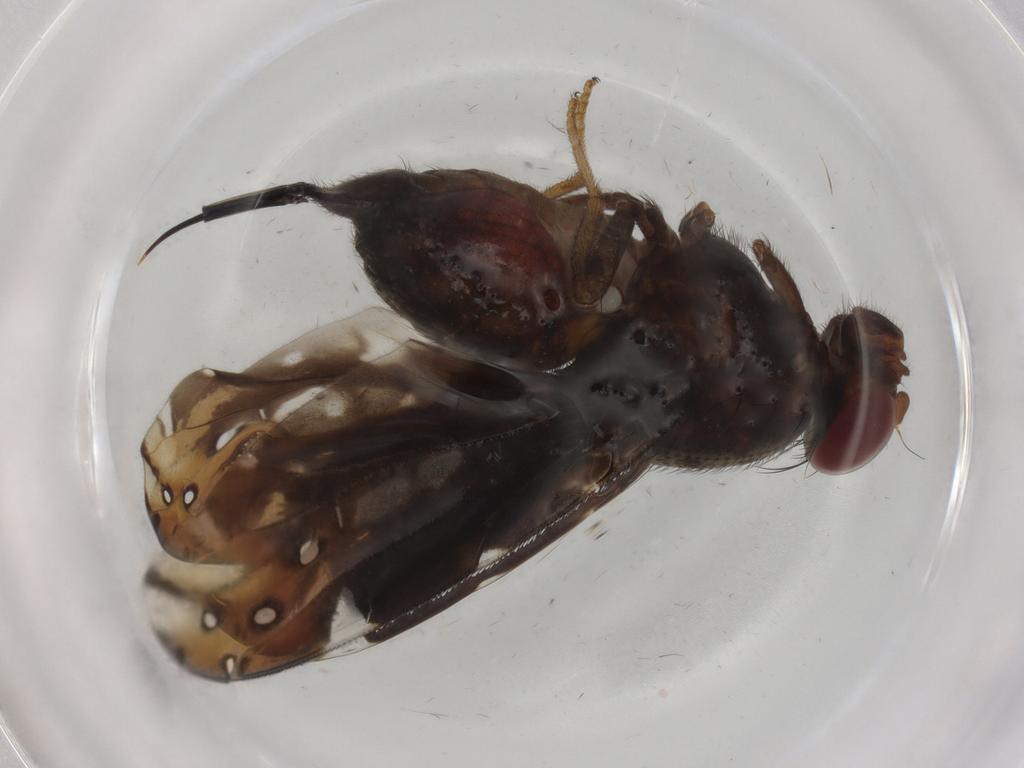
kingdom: Animalia
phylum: Arthropoda
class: Insecta
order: Diptera
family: Ulidiidae
